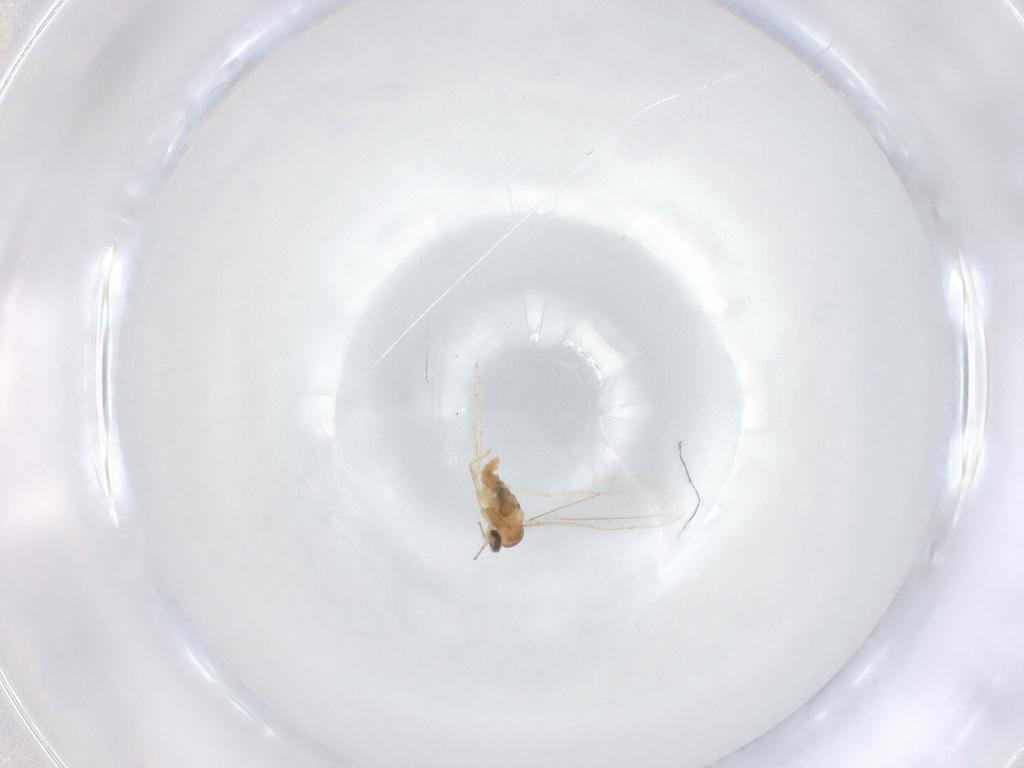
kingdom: Animalia
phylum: Arthropoda
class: Insecta
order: Diptera
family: Cecidomyiidae
